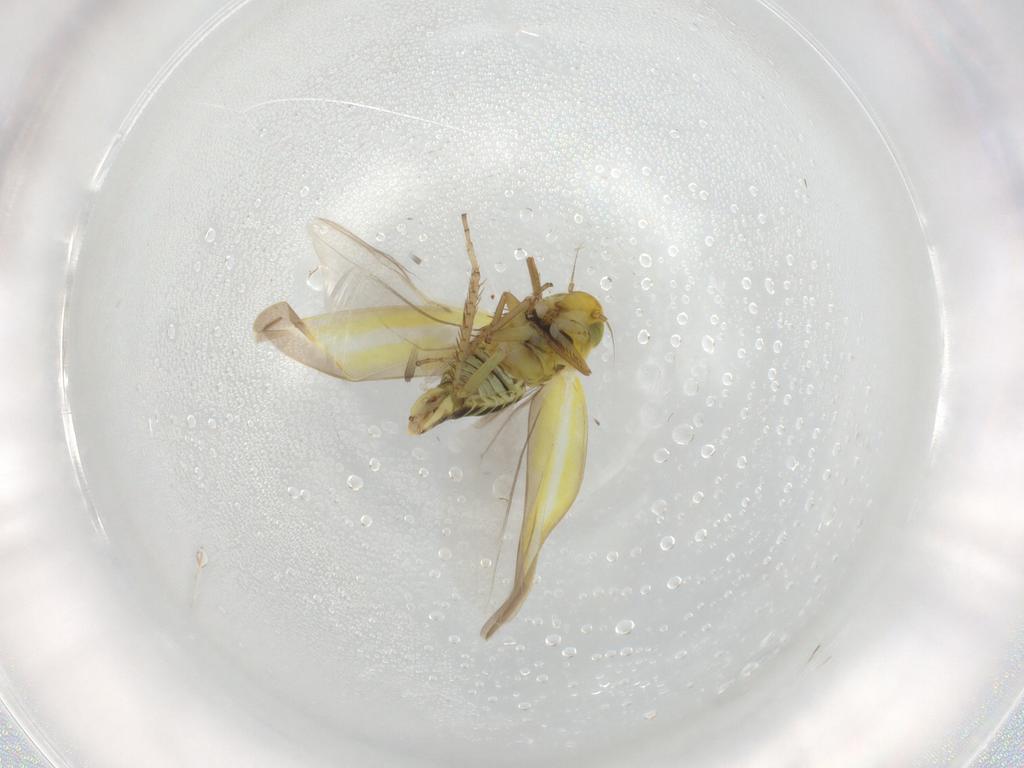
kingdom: Animalia
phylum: Arthropoda
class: Insecta
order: Hemiptera
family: Cicadellidae
